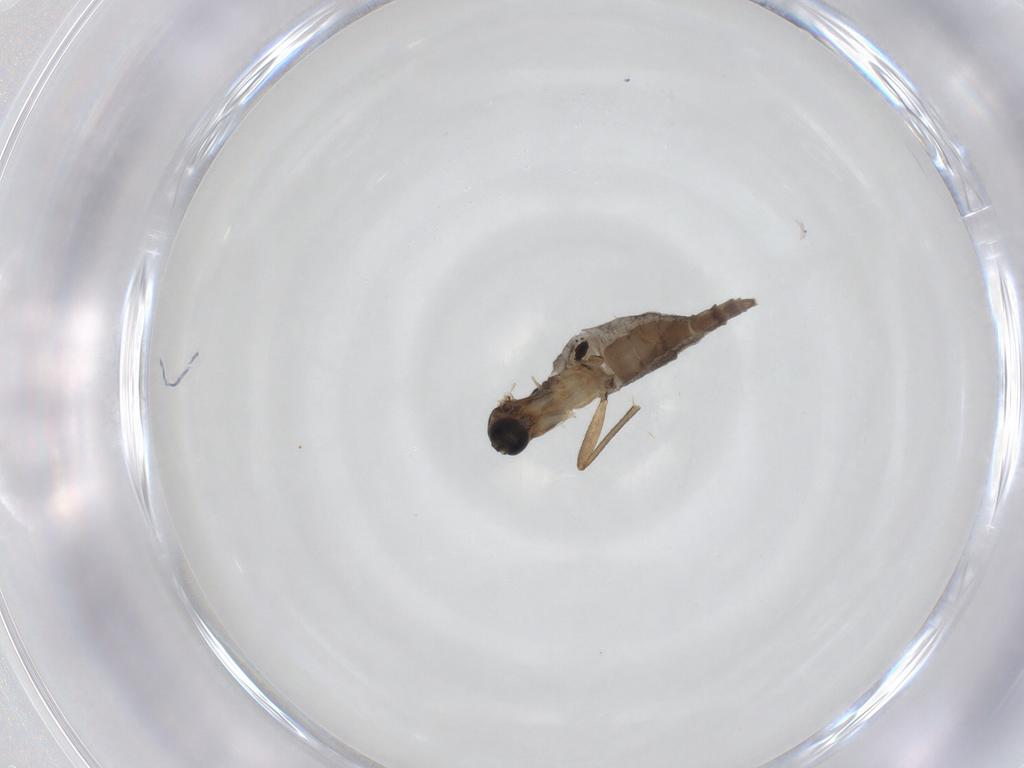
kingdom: Animalia
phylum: Arthropoda
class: Insecta
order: Diptera
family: Sciaridae
